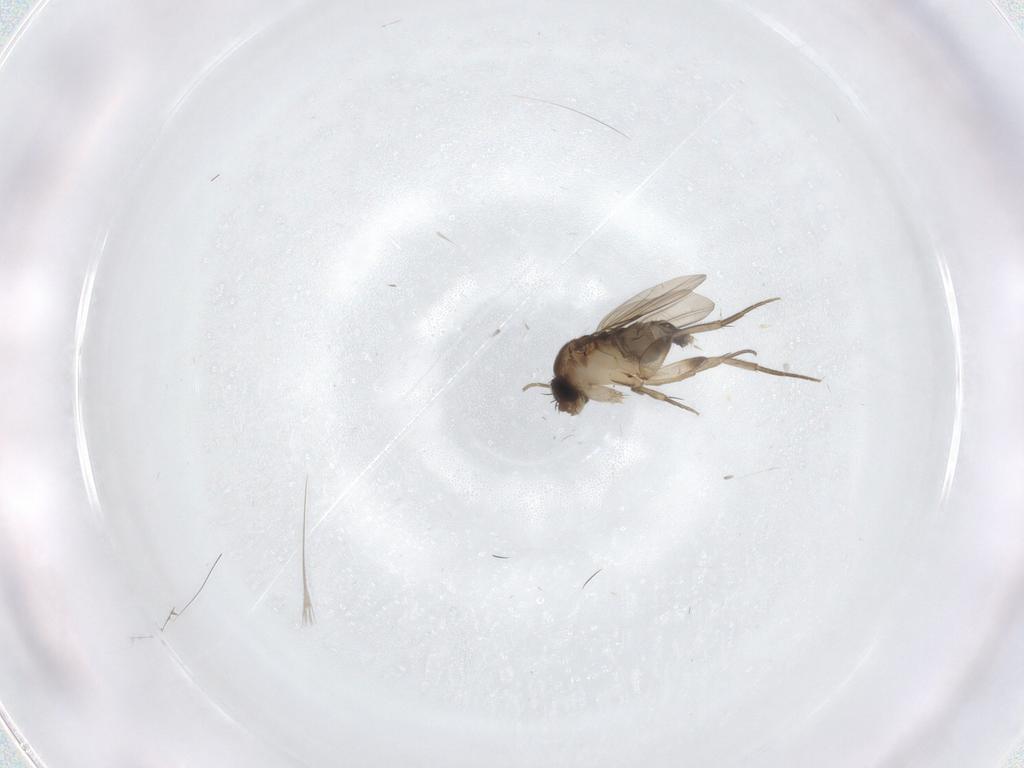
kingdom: Animalia
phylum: Arthropoda
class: Insecta
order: Diptera
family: Phoridae
